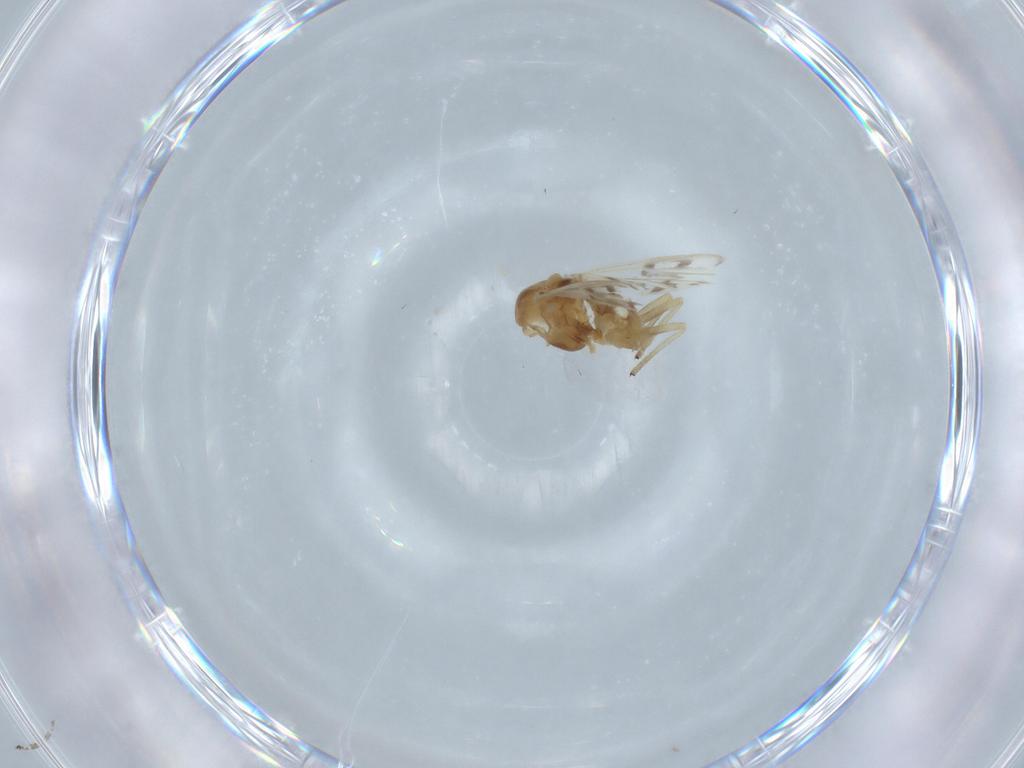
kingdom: Animalia
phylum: Arthropoda
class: Insecta
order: Diptera
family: Chironomidae
